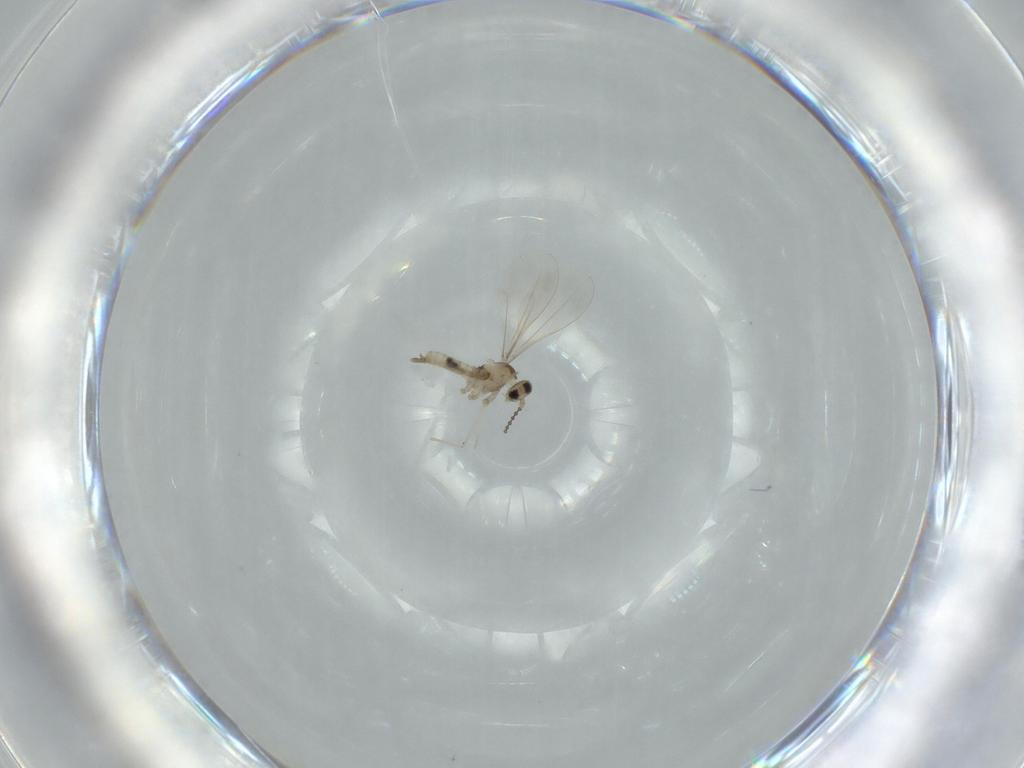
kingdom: Animalia
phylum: Arthropoda
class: Insecta
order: Diptera
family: Cecidomyiidae
